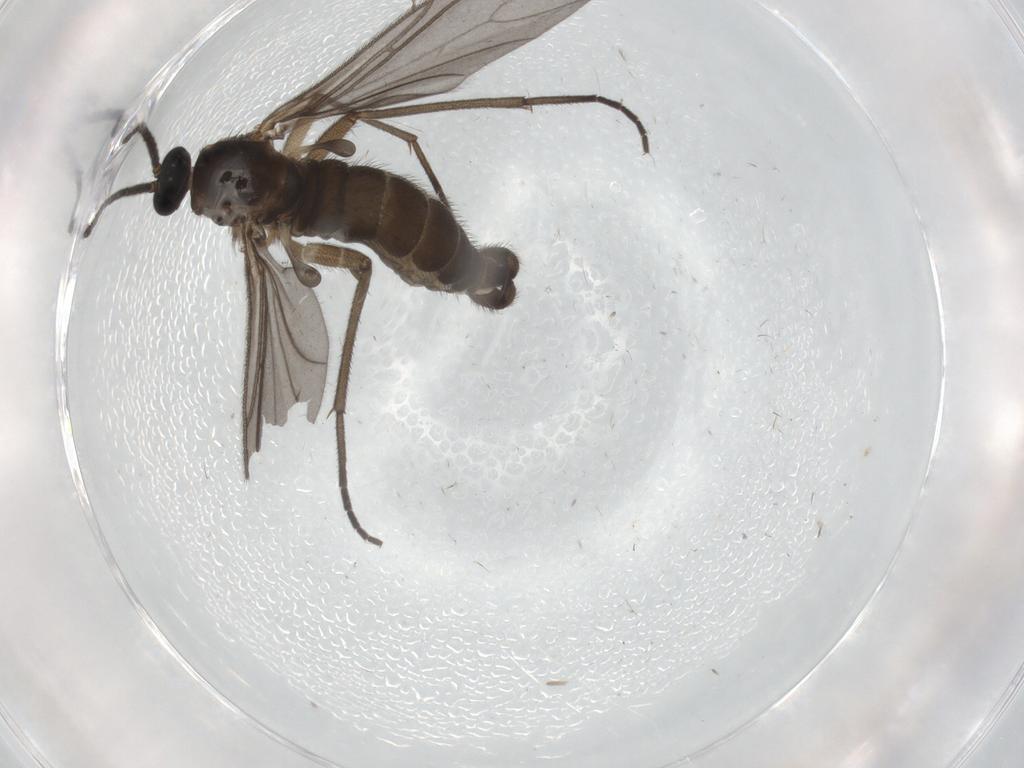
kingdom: Animalia
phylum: Arthropoda
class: Insecta
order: Diptera
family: Sciaridae
